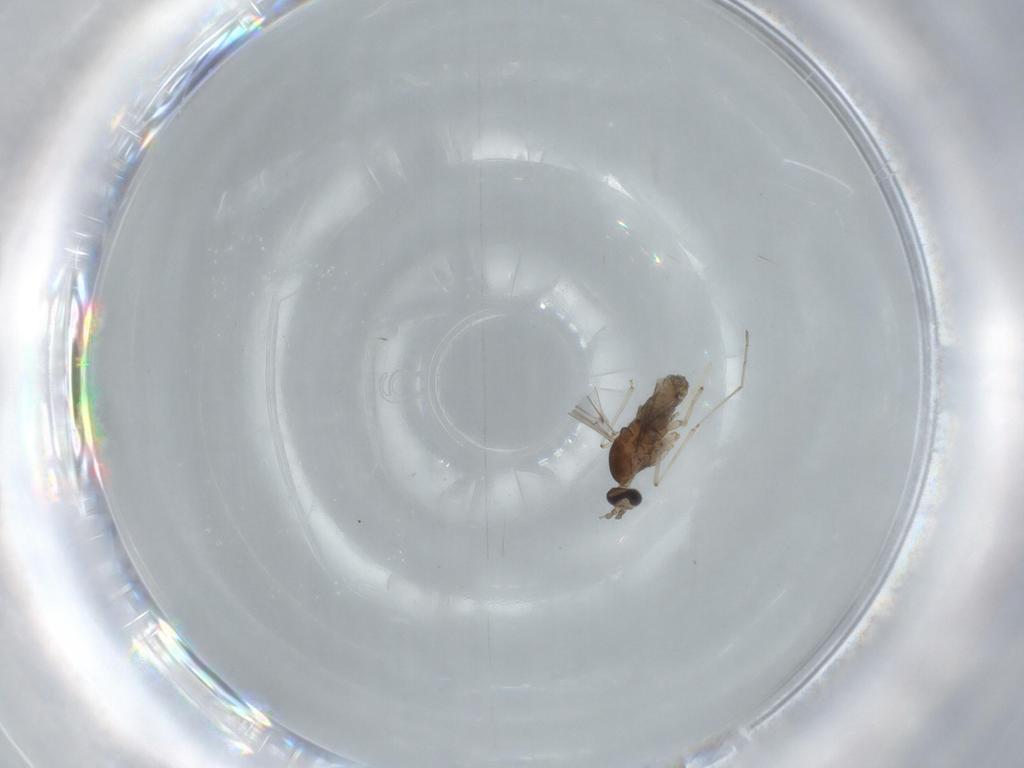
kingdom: Animalia
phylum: Arthropoda
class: Insecta
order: Diptera
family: Cecidomyiidae
